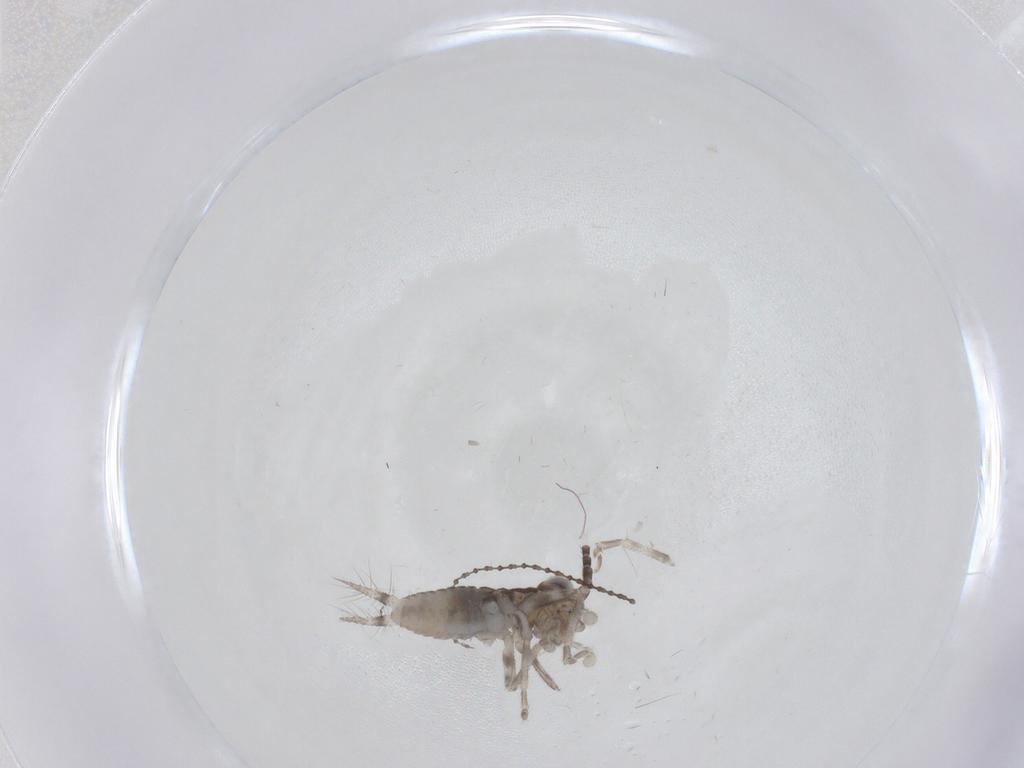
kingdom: Animalia
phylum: Arthropoda
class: Insecta
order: Orthoptera
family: Trigonidiidae
